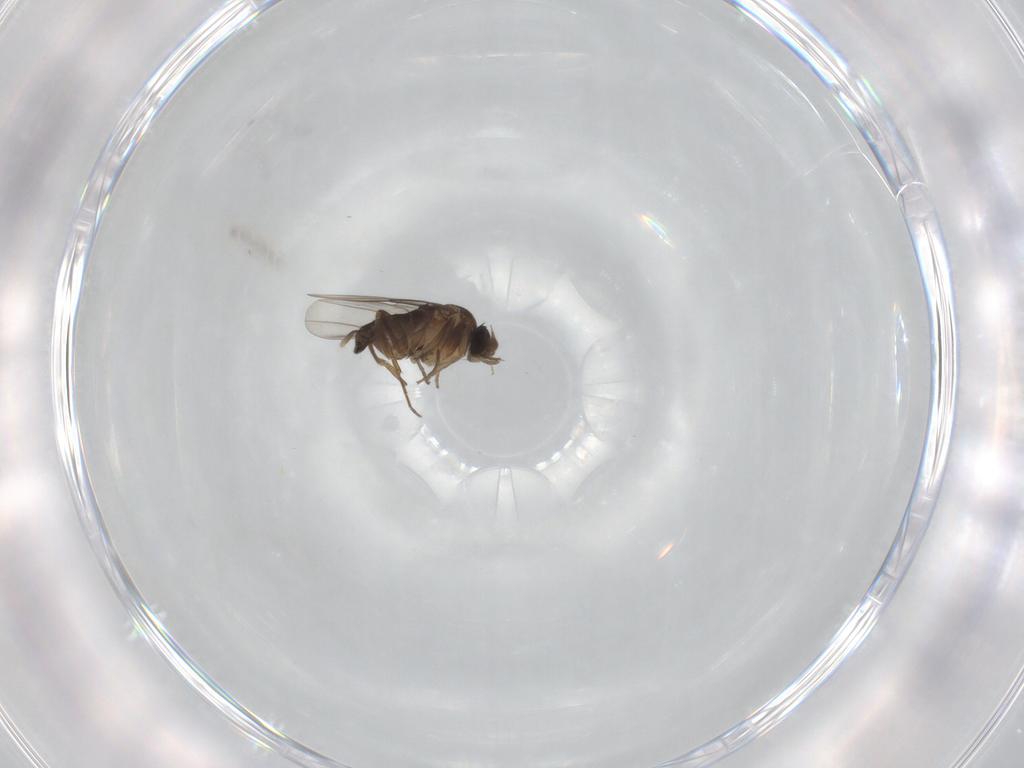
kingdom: Animalia
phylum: Arthropoda
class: Insecta
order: Diptera
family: Phoridae
